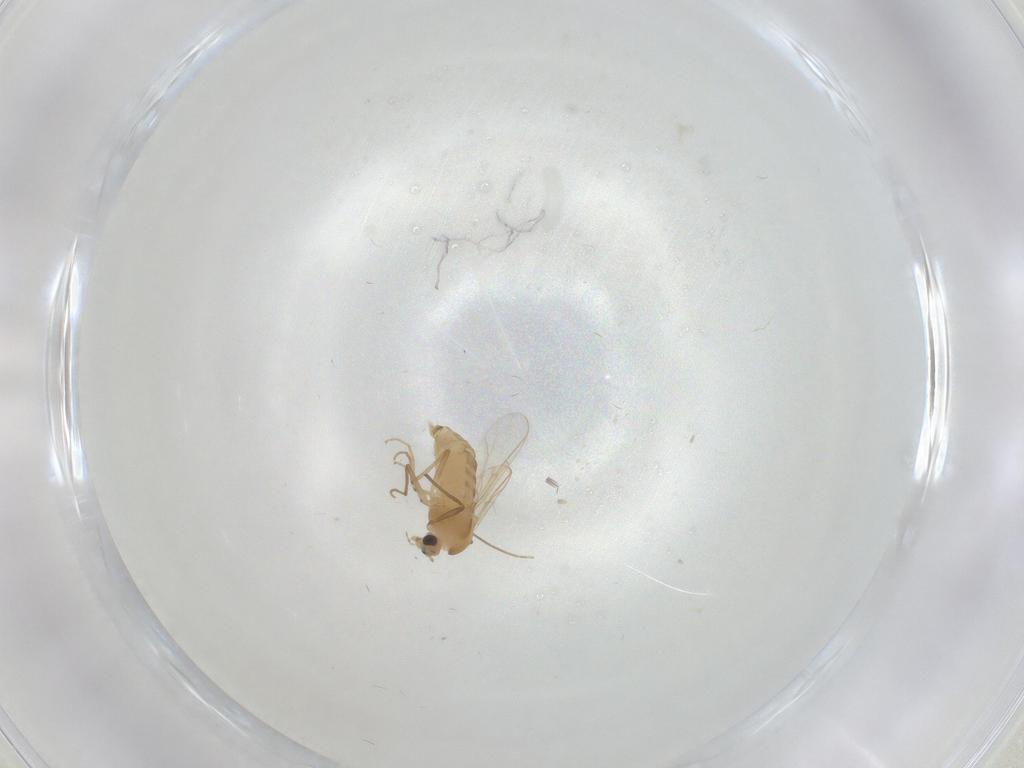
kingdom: Animalia
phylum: Arthropoda
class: Insecta
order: Diptera
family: Chironomidae
